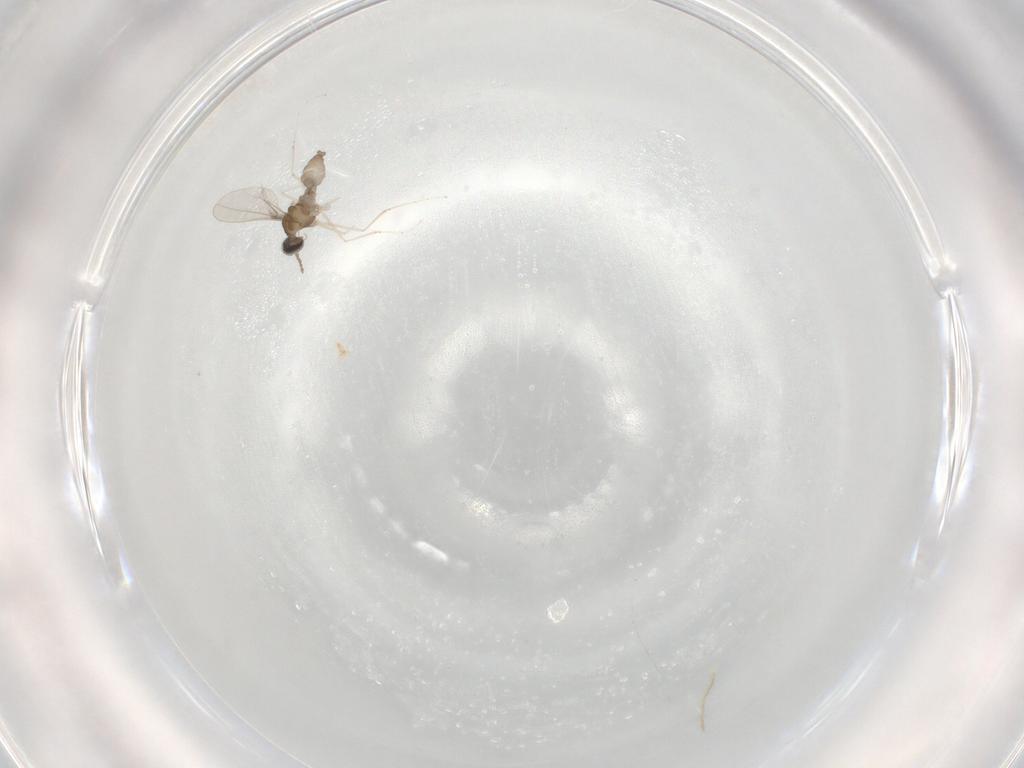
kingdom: Animalia
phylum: Arthropoda
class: Insecta
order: Diptera
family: Cecidomyiidae
